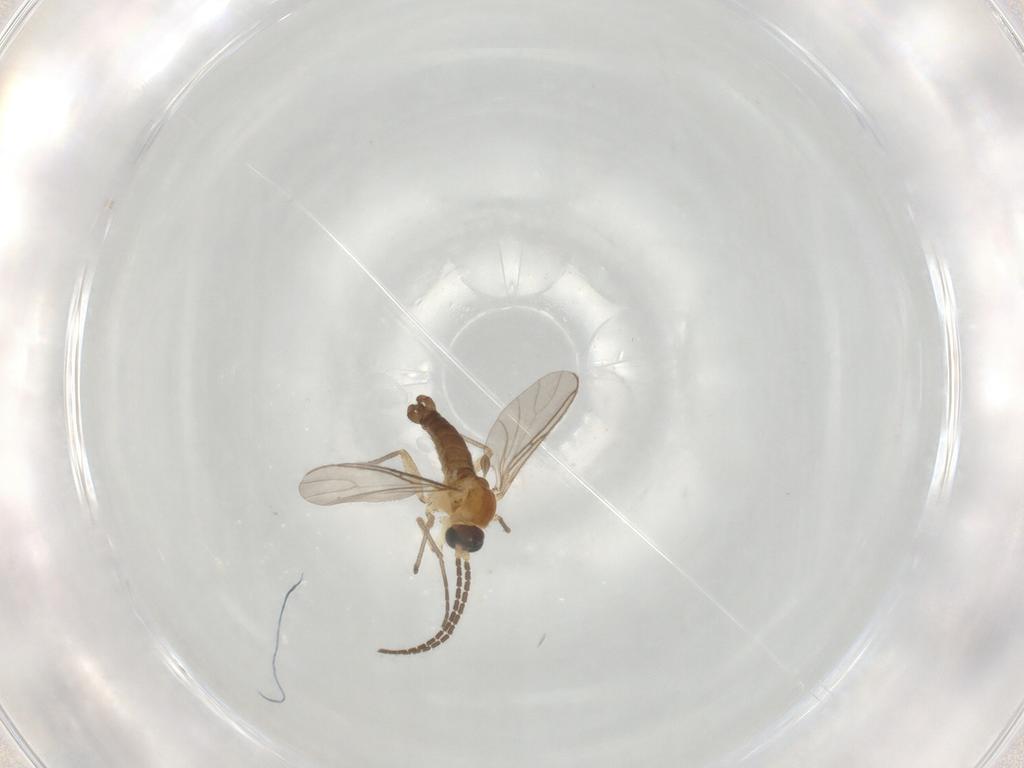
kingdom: Animalia
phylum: Arthropoda
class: Insecta
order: Diptera
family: Sciaridae
